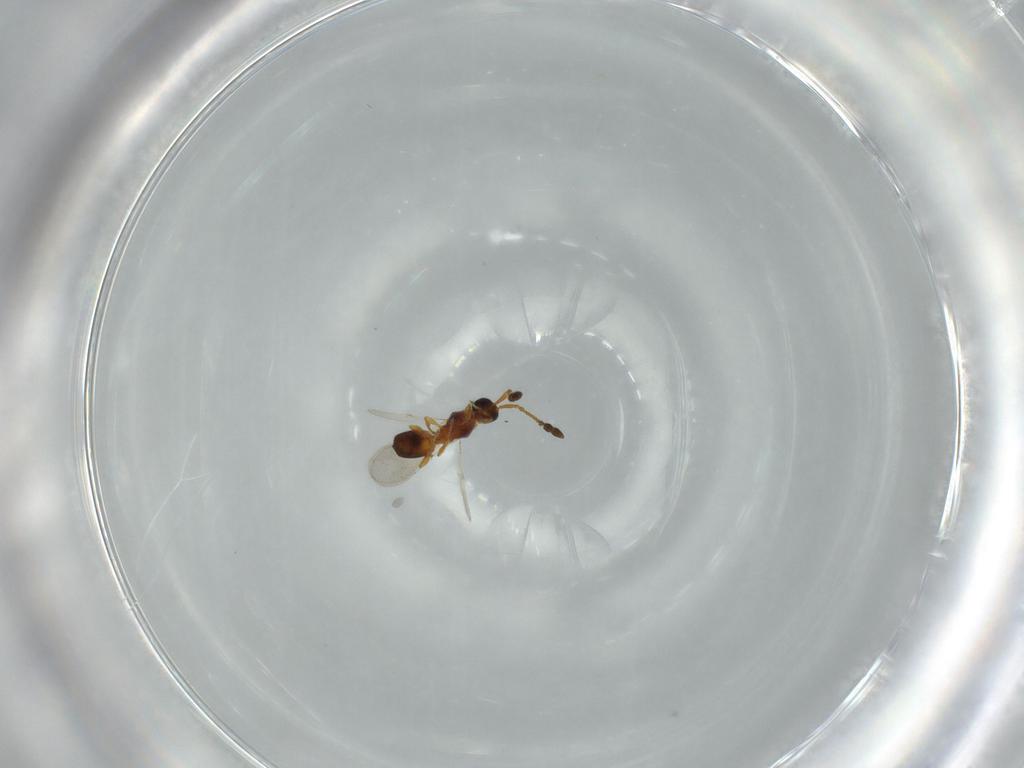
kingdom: Animalia
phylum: Arthropoda
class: Insecta
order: Hymenoptera
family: Diapriidae
